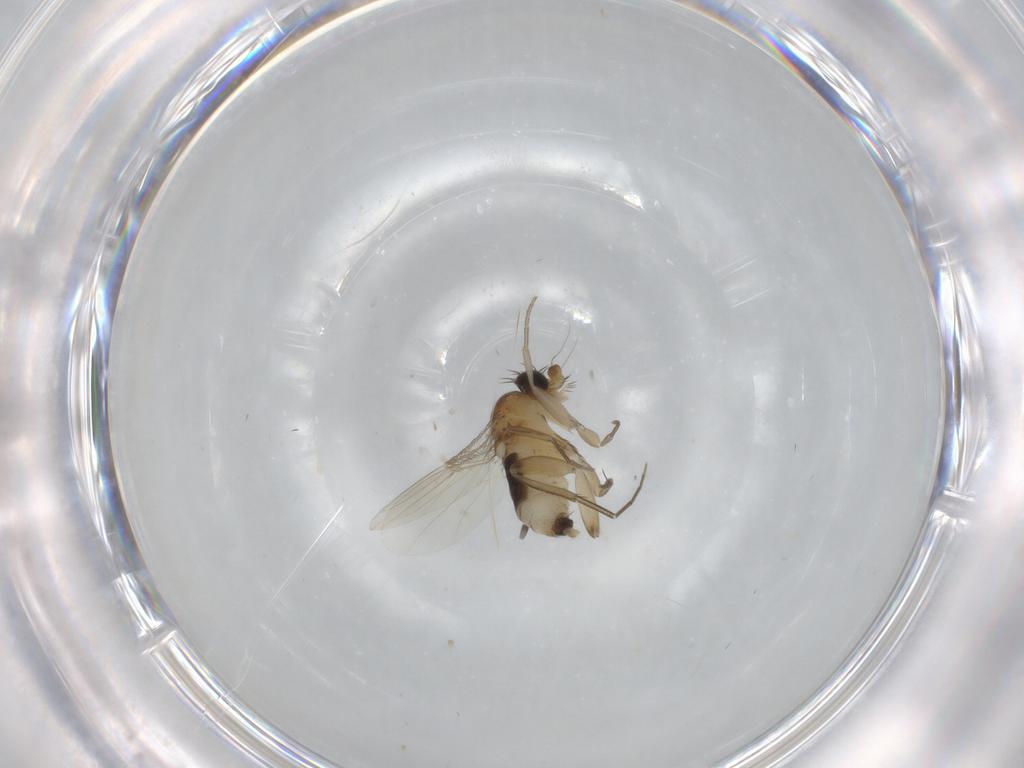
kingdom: Animalia
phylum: Arthropoda
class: Insecta
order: Diptera
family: Phoridae
